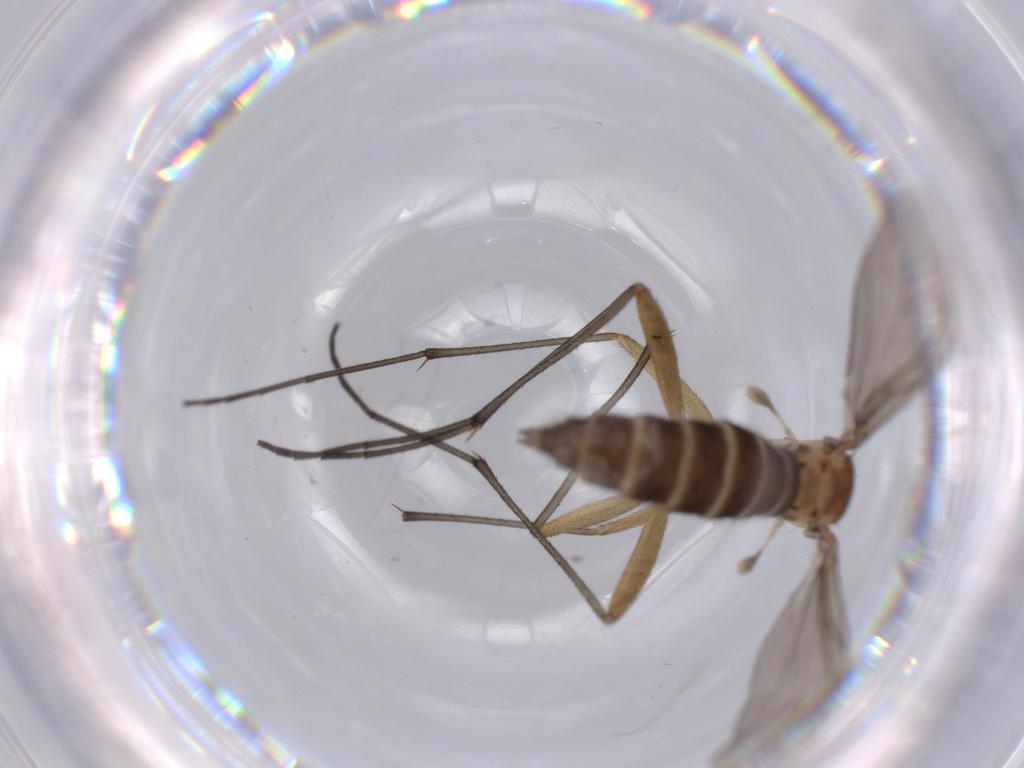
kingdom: Animalia
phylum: Arthropoda
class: Insecta
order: Diptera
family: Sciaridae
